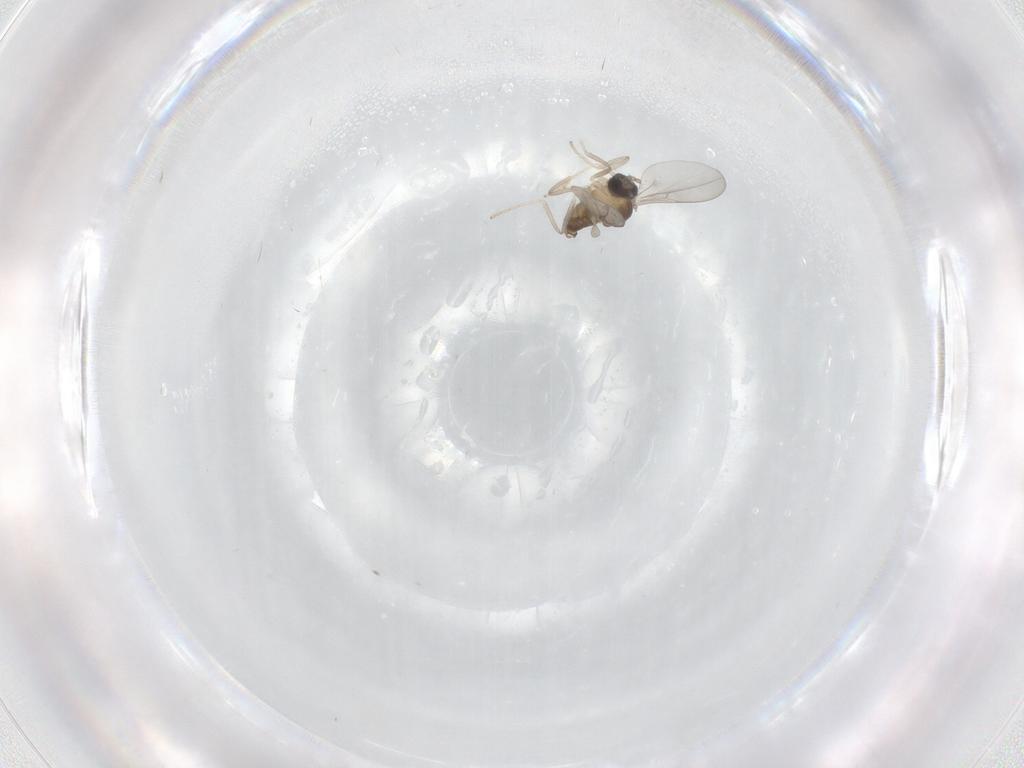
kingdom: Animalia
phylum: Arthropoda
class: Insecta
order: Diptera
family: Cecidomyiidae
